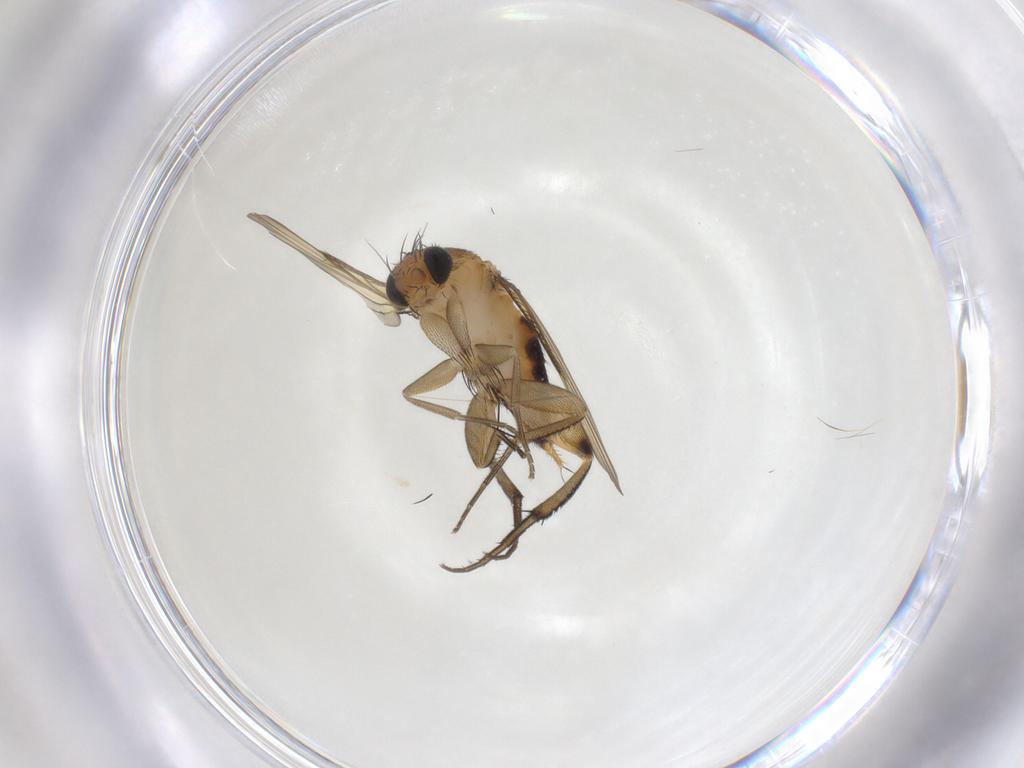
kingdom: Animalia
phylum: Arthropoda
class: Insecta
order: Diptera
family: Phoridae
